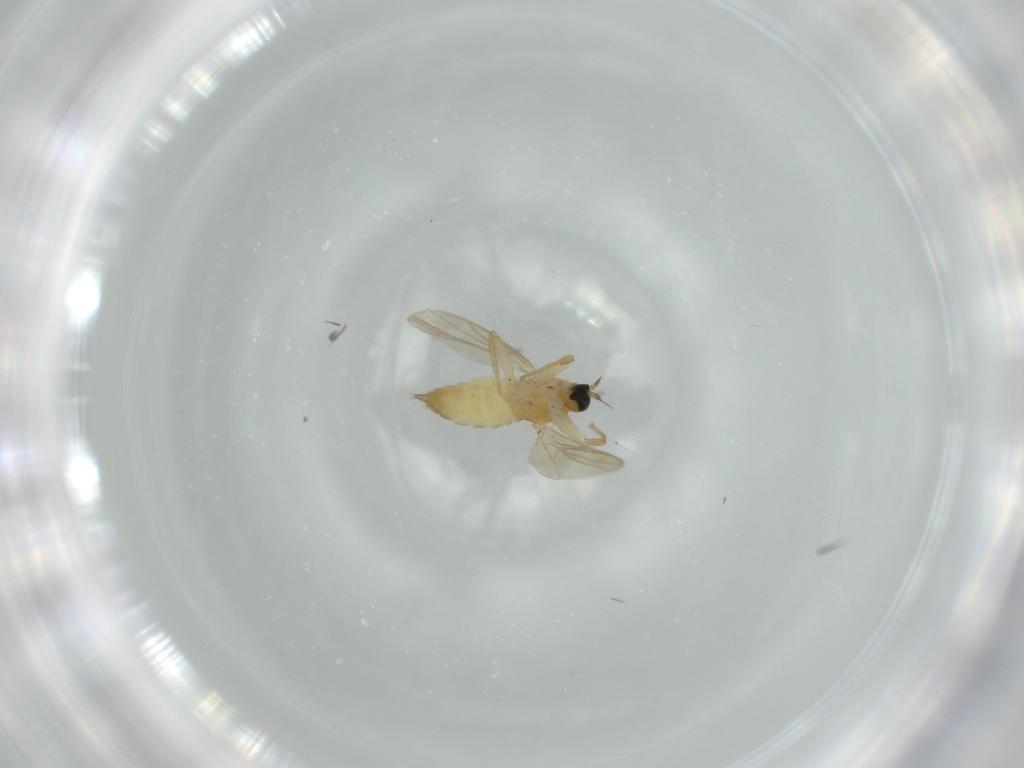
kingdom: Animalia
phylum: Arthropoda
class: Insecta
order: Diptera
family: Hybotidae
